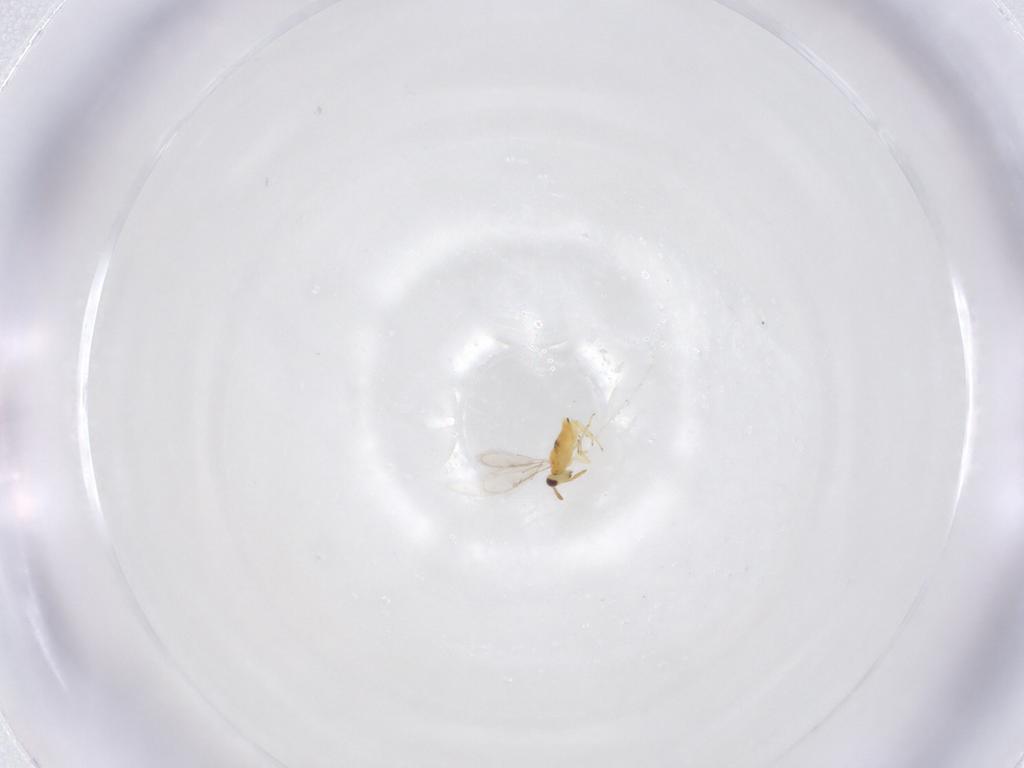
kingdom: Animalia
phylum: Arthropoda
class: Insecta
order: Hymenoptera
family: Aphelinidae
